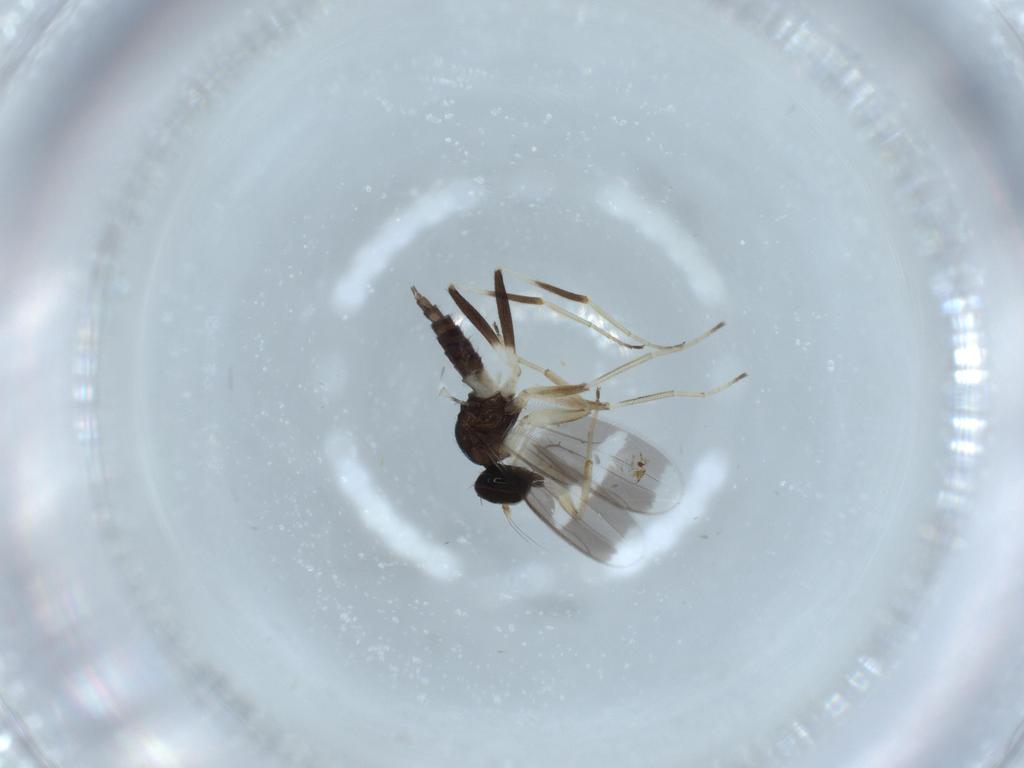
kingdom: Animalia
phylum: Arthropoda
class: Insecta
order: Diptera
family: Hybotidae
